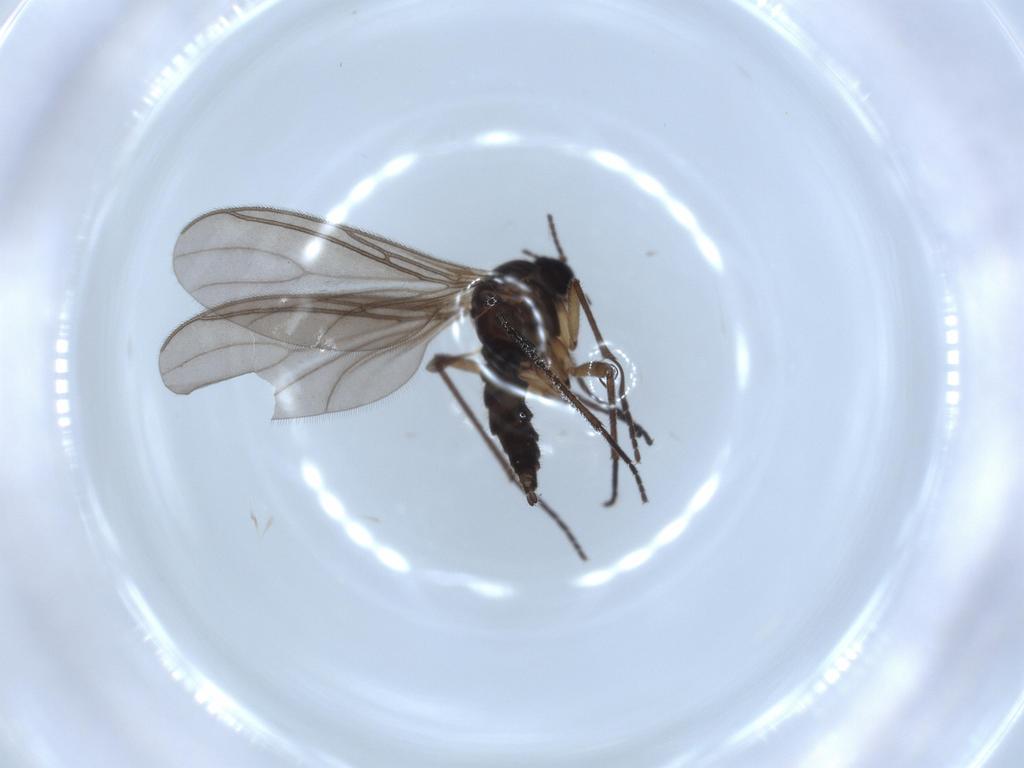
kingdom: Animalia
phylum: Arthropoda
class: Insecta
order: Diptera
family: Sciaridae
